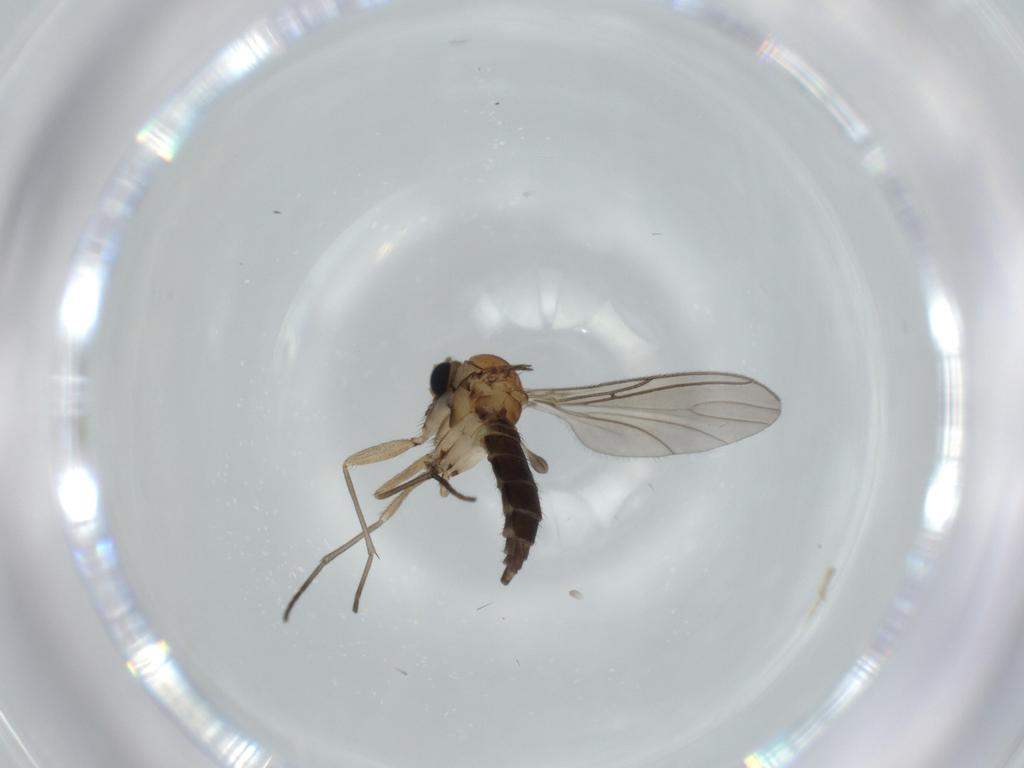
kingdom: Animalia
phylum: Arthropoda
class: Insecta
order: Diptera
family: Sciaridae
